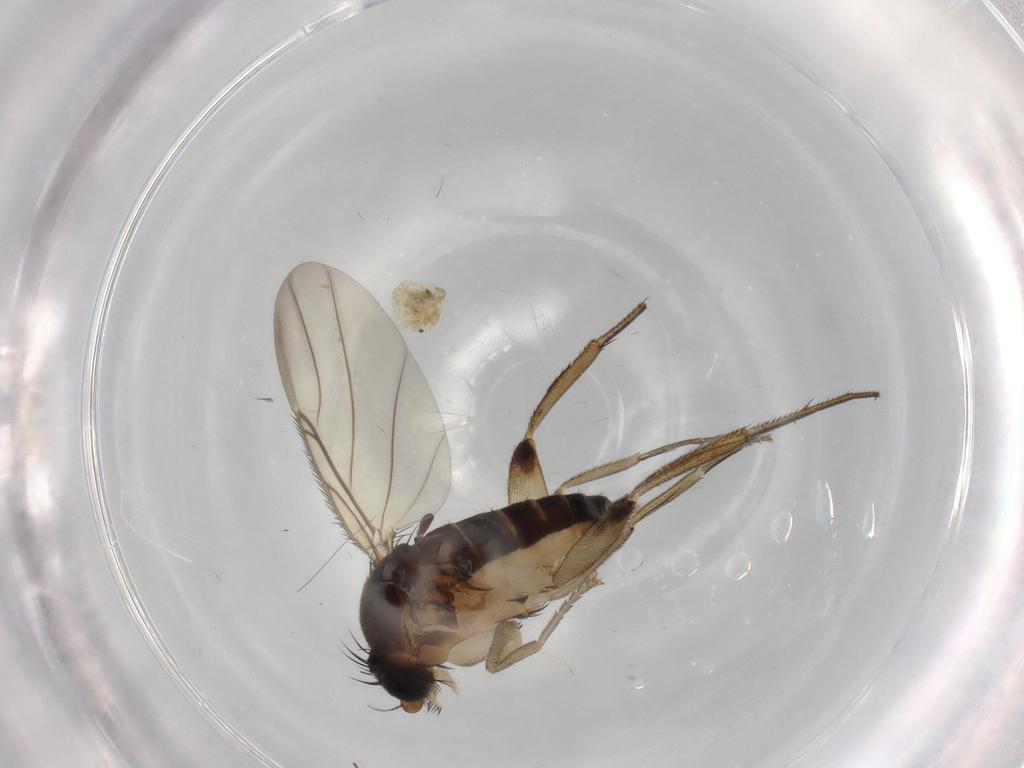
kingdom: Animalia
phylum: Arthropoda
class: Insecta
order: Diptera
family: Phoridae
